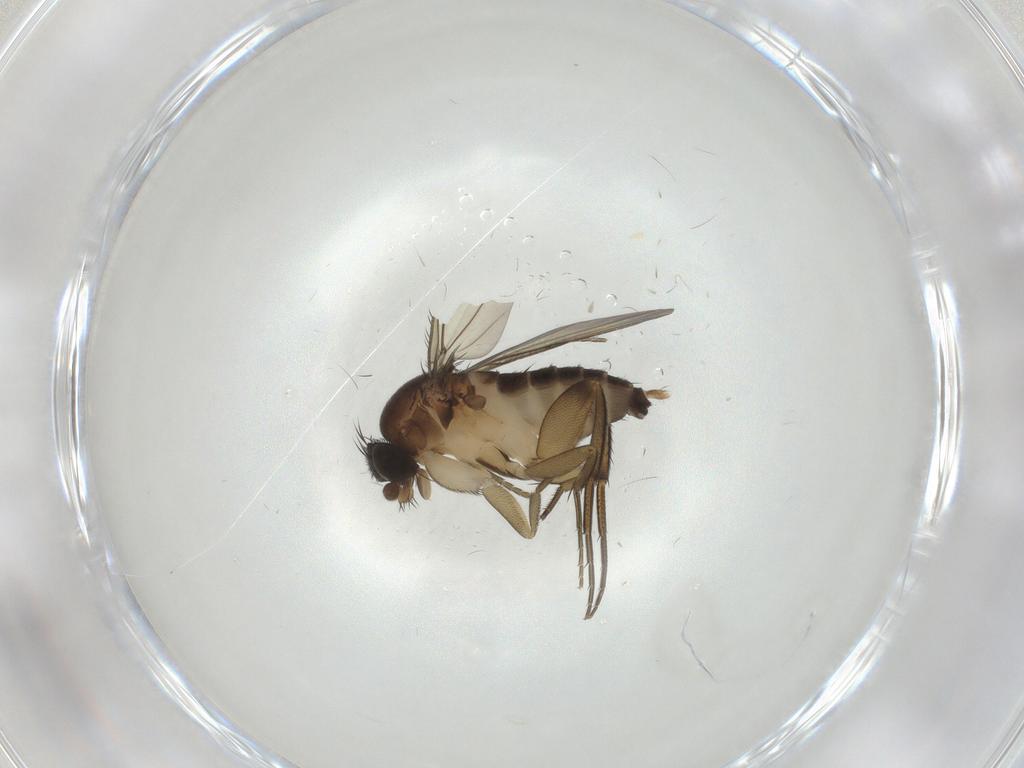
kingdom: Animalia
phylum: Arthropoda
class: Insecta
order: Diptera
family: Phoridae
